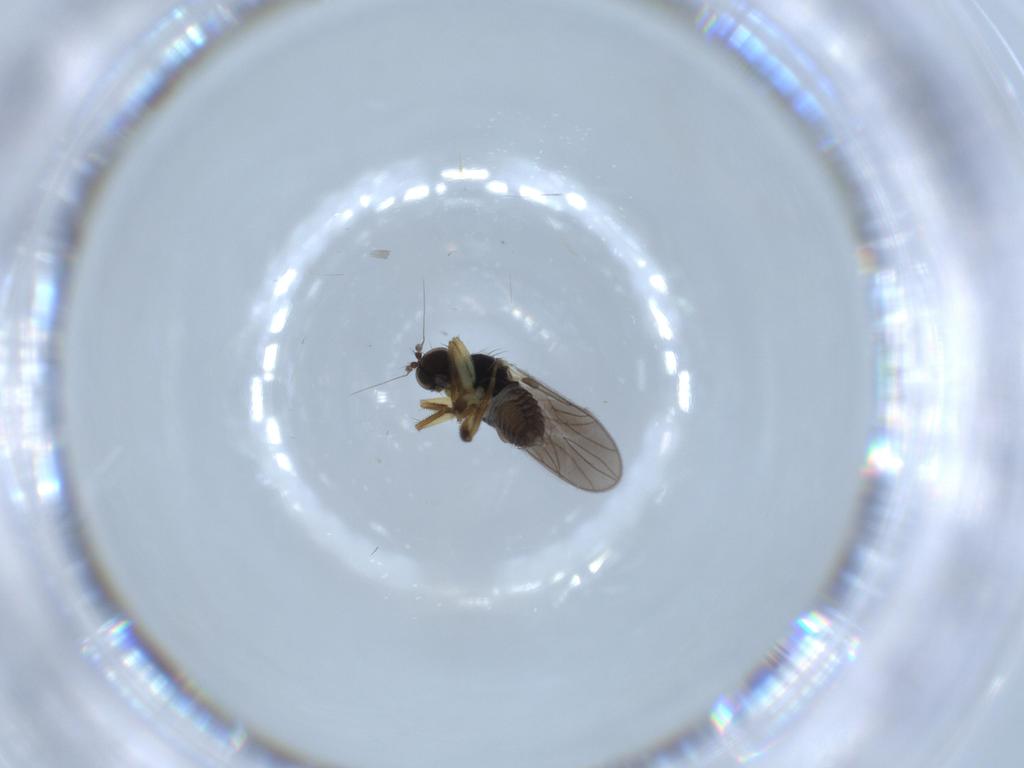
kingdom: Animalia
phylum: Arthropoda
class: Insecta
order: Diptera
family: Hybotidae
